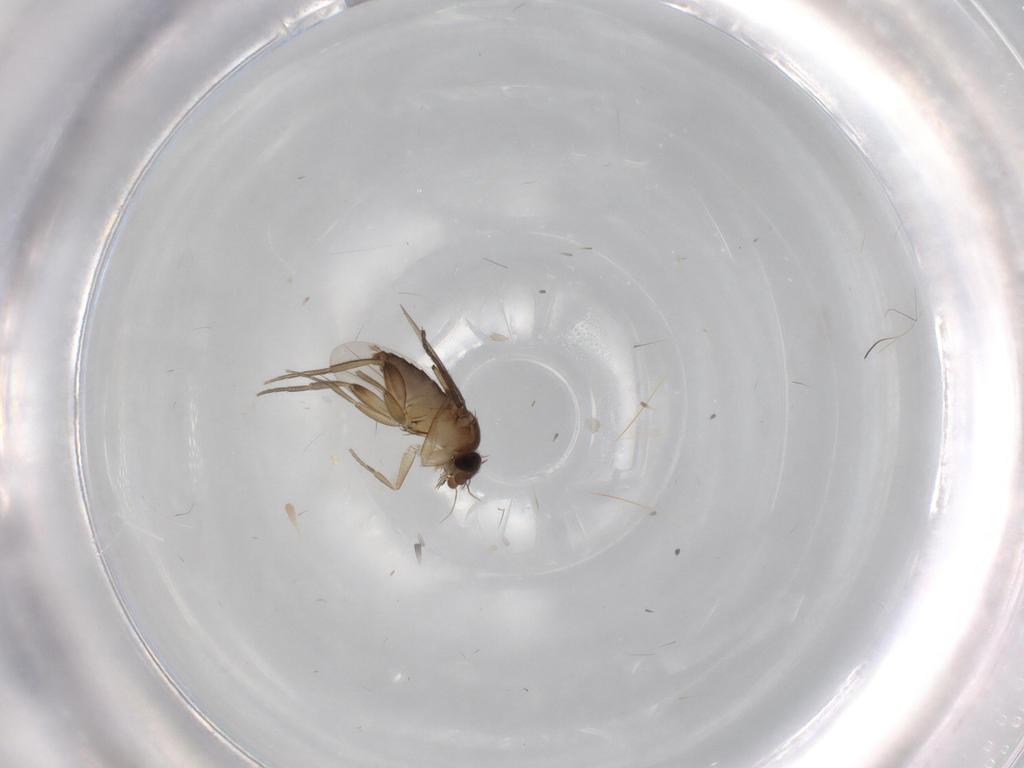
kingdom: Animalia
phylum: Arthropoda
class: Insecta
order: Diptera
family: Sciaridae
